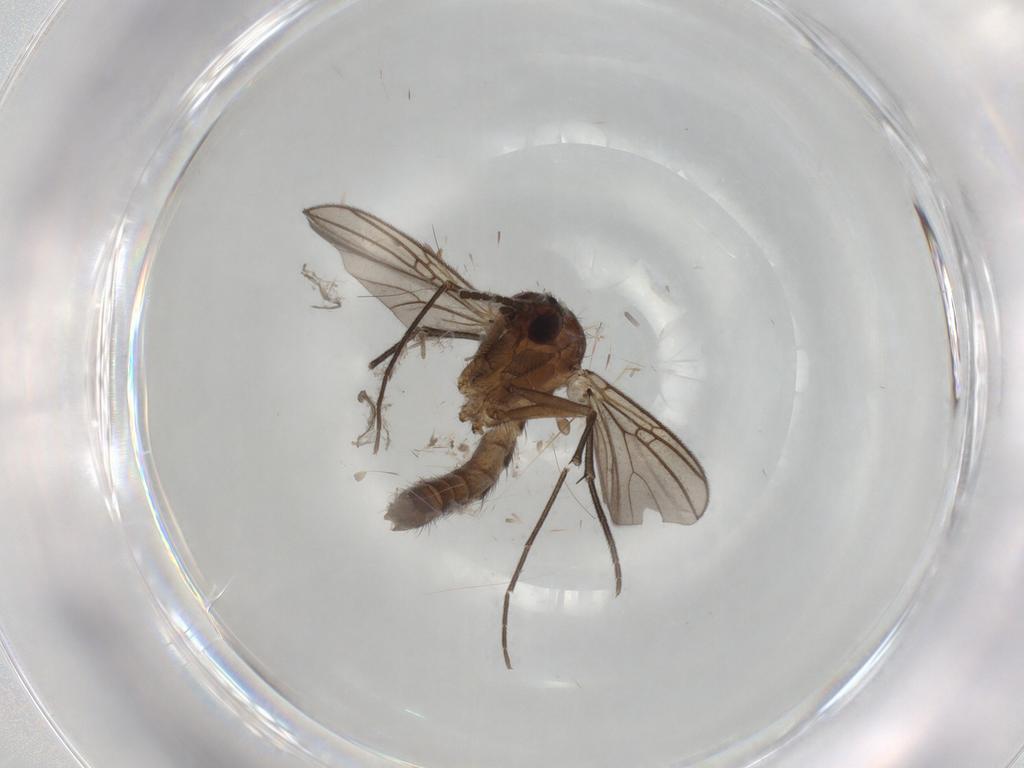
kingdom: Animalia
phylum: Arthropoda
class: Insecta
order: Diptera
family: Mycetophilidae
